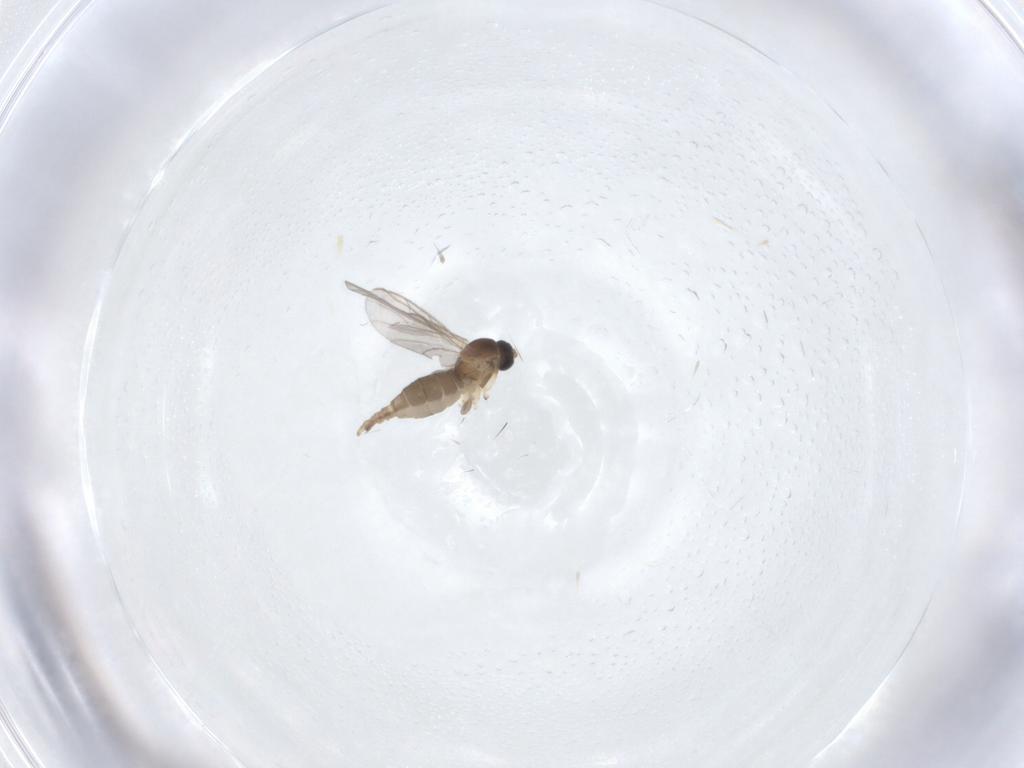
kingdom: Animalia
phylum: Arthropoda
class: Insecta
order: Diptera
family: Sciaridae
